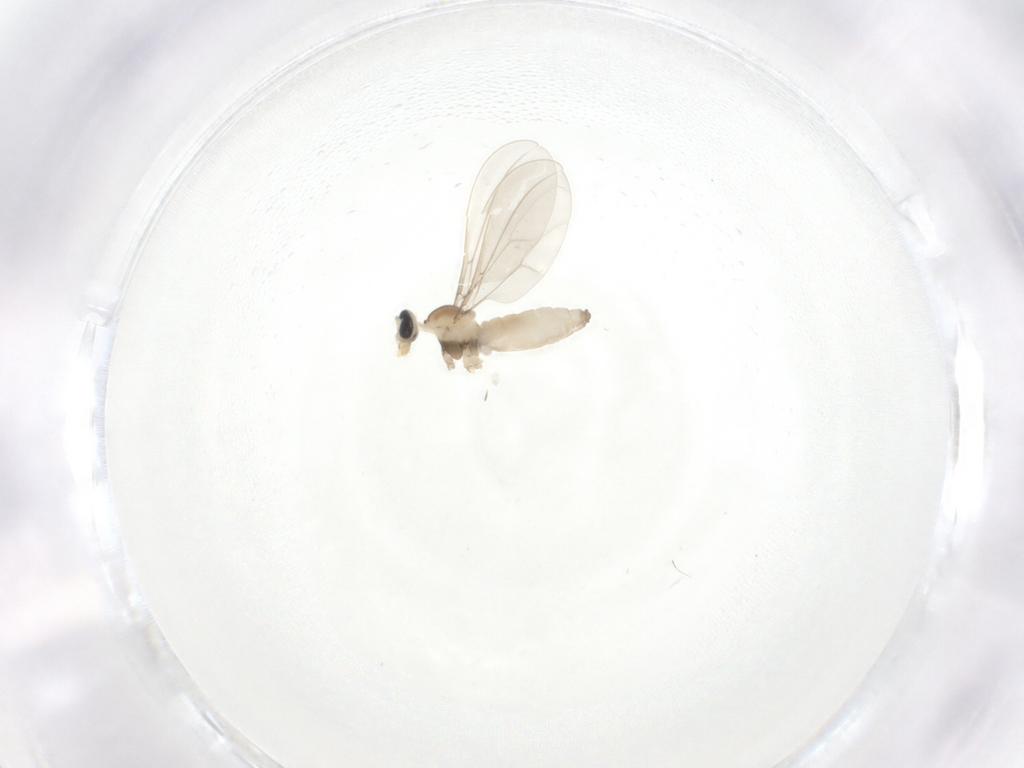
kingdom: Animalia
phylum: Arthropoda
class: Insecta
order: Diptera
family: Cecidomyiidae
